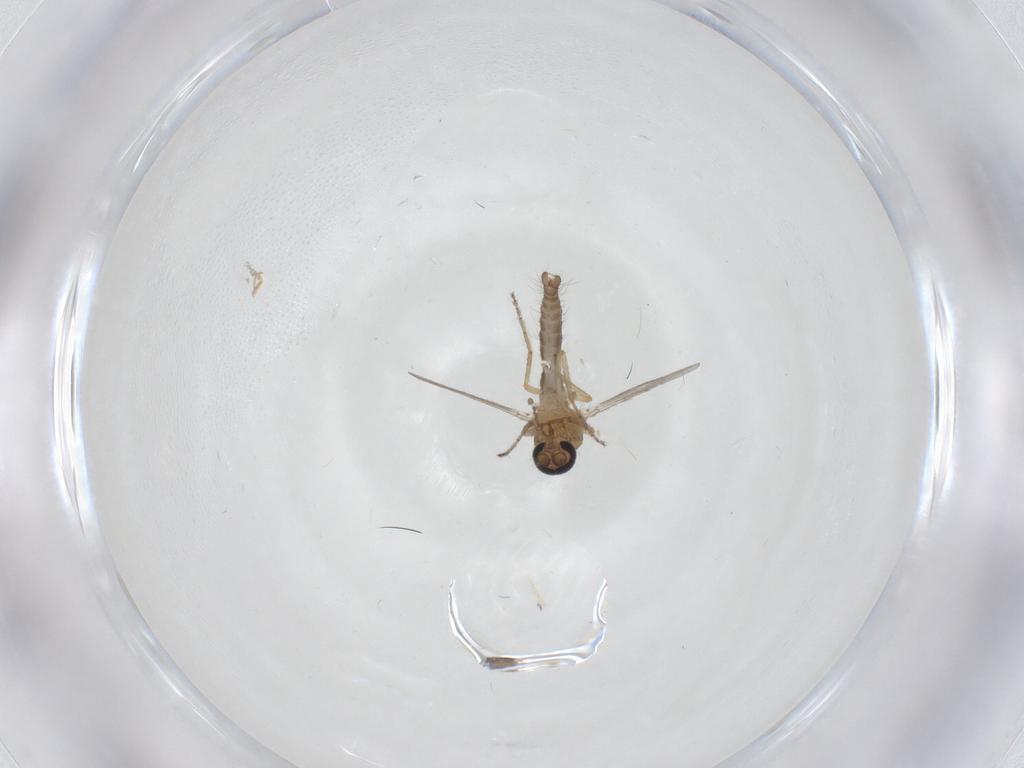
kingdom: Animalia
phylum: Arthropoda
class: Insecta
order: Diptera
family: Ceratopogonidae
